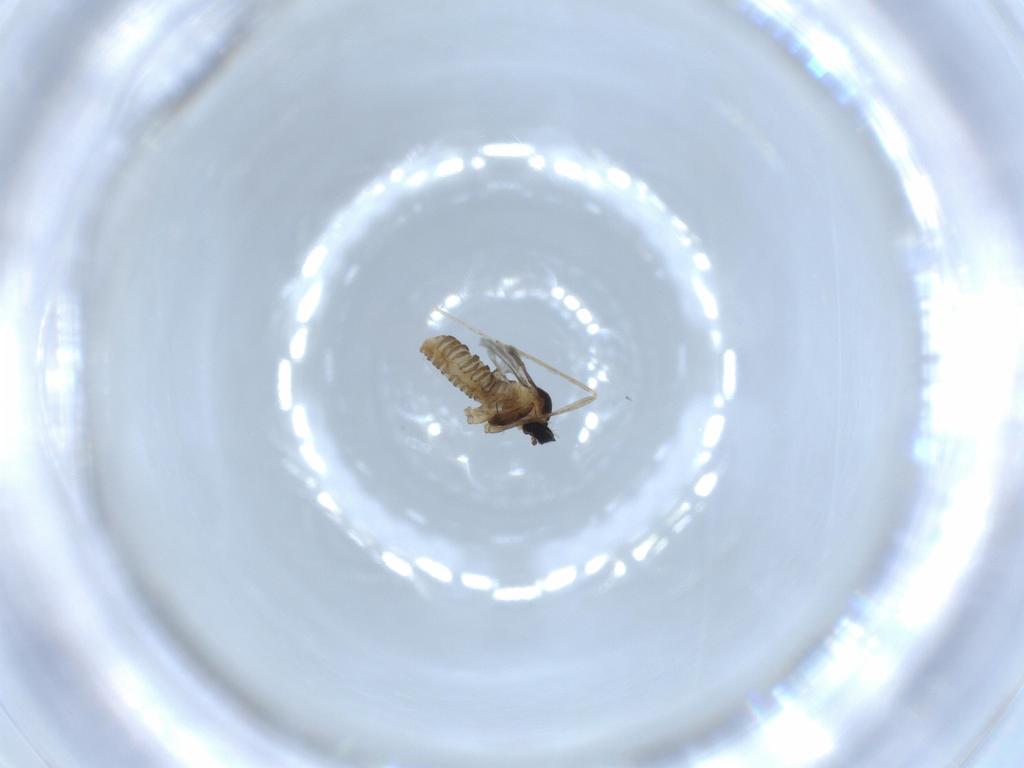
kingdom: Animalia
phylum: Arthropoda
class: Insecta
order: Diptera
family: Cecidomyiidae
